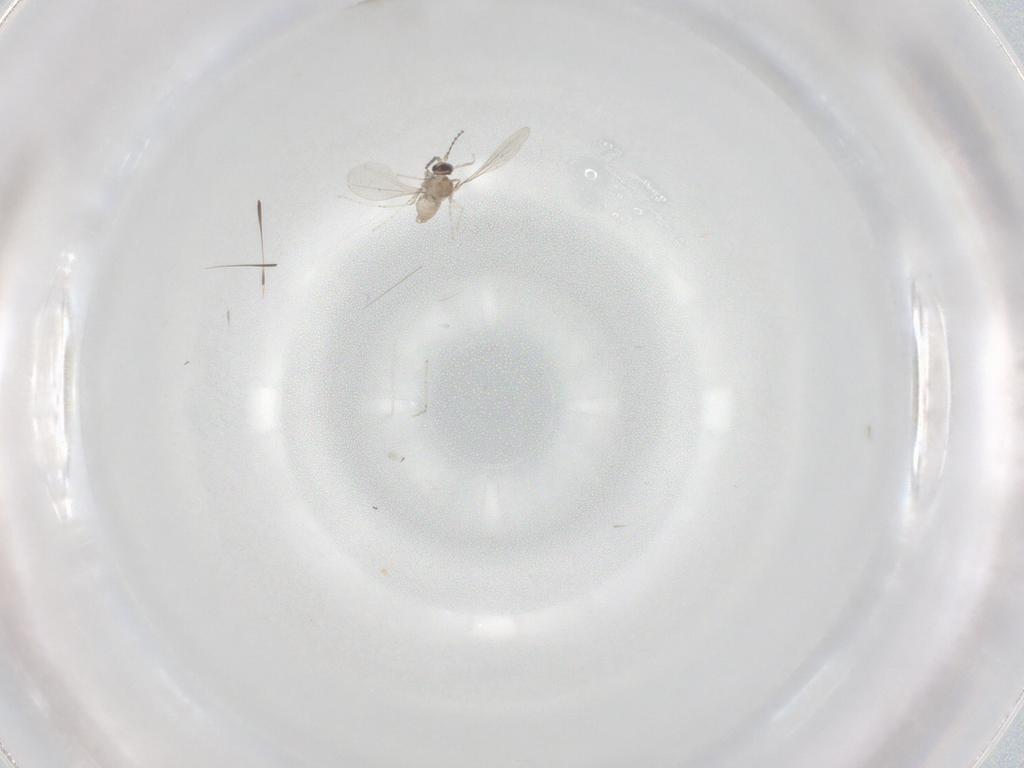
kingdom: Animalia
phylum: Arthropoda
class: Insecta
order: Diptera
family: Cecidomyiidae
